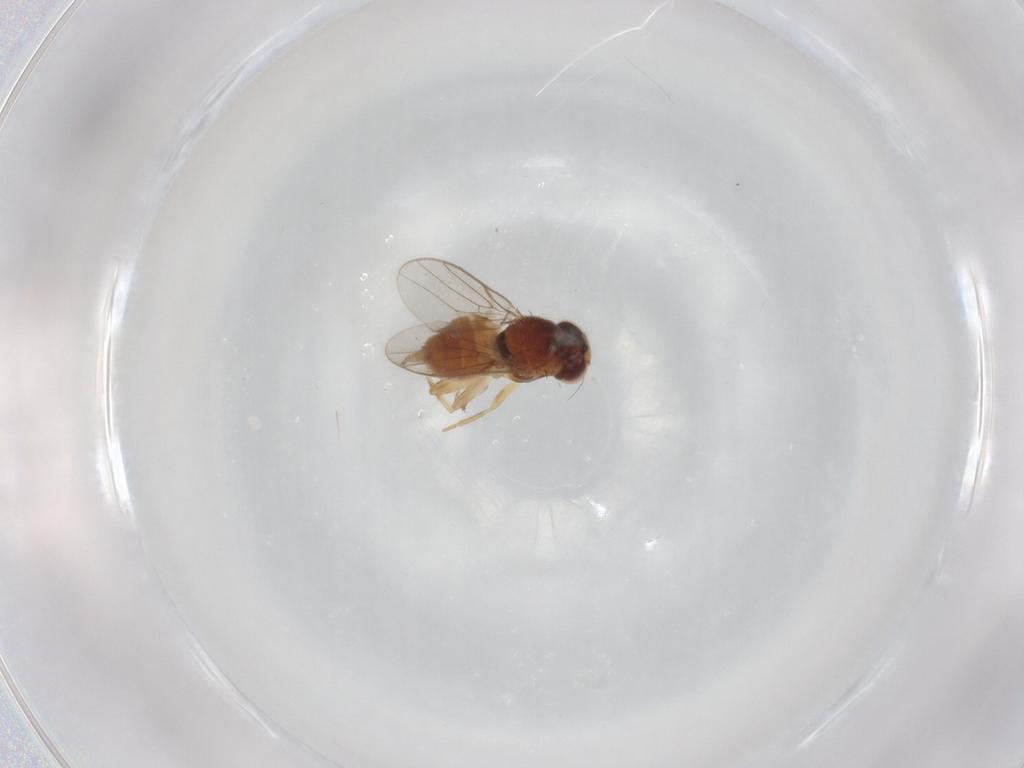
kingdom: Animalia
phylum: Arthropoda
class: Insecta
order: Diptera
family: Chloropidae
